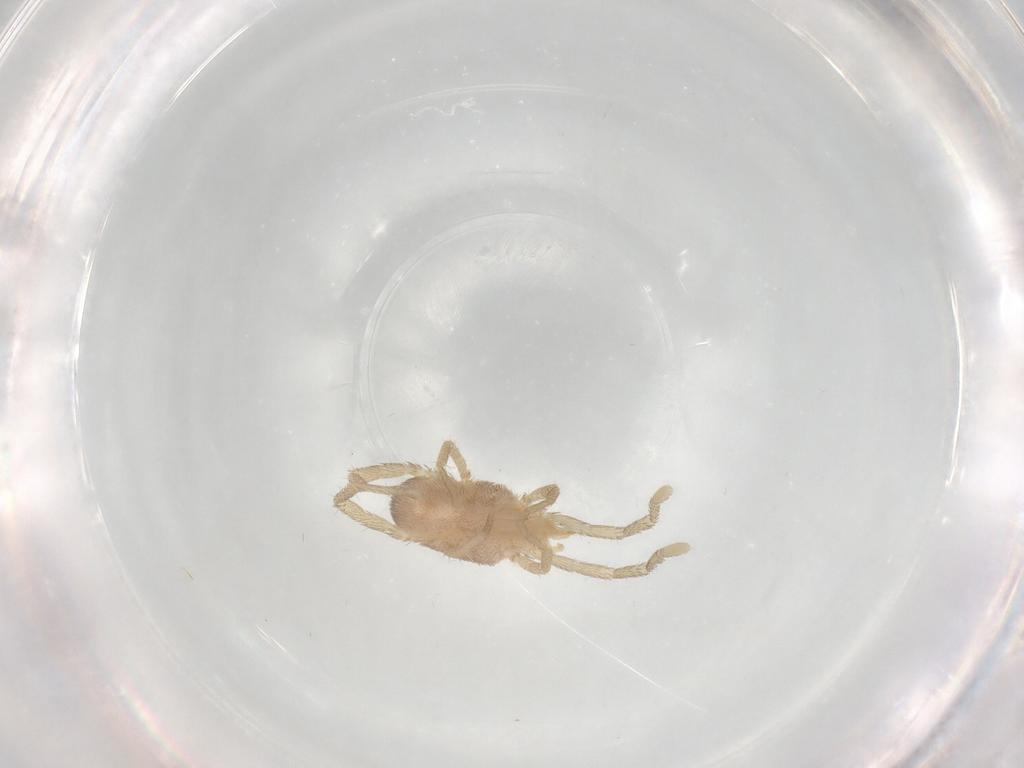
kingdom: Animalia
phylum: Arthropoda
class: Arachnida
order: Trombidiformes
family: Erythraeidae
